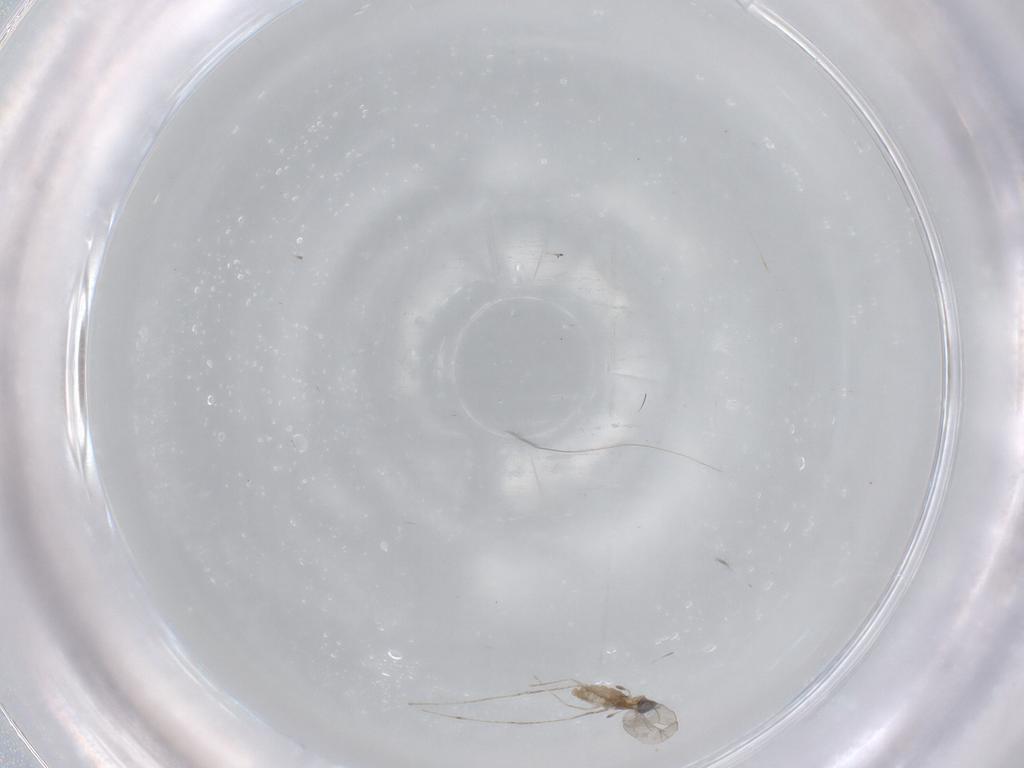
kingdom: Animalia
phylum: Arthropoda
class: Insecta
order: Diptera
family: Cecidomyiidae
